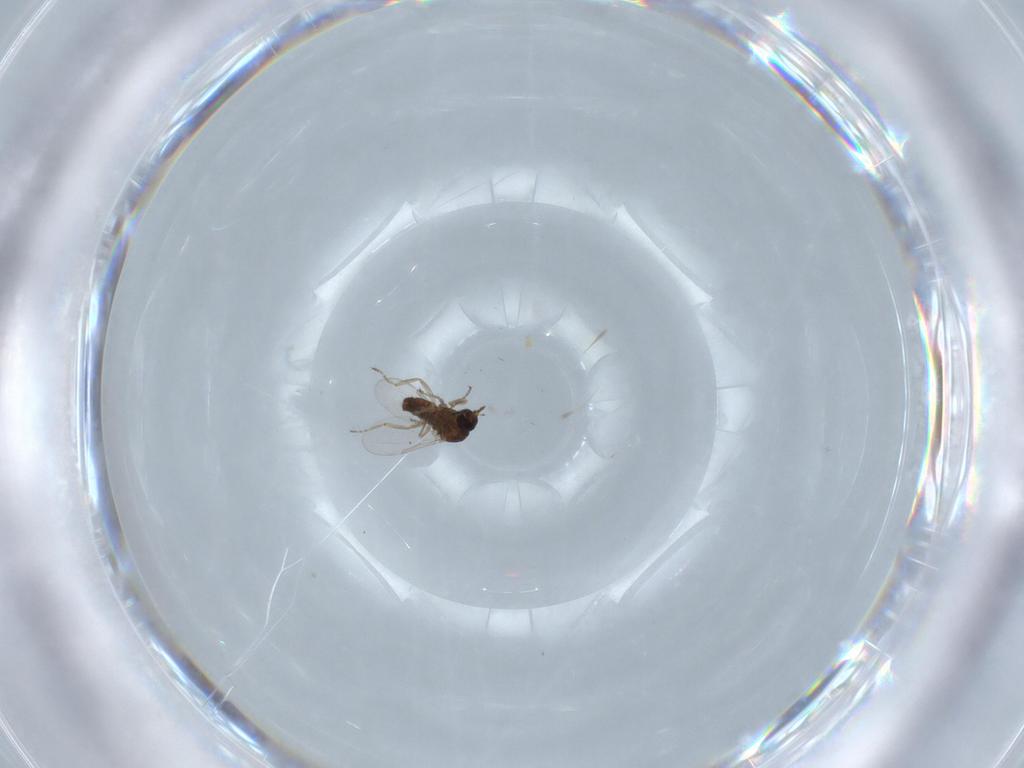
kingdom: Animalia
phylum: Arthropoda
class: Insecta
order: Diptera
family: Ceratopogonidae
